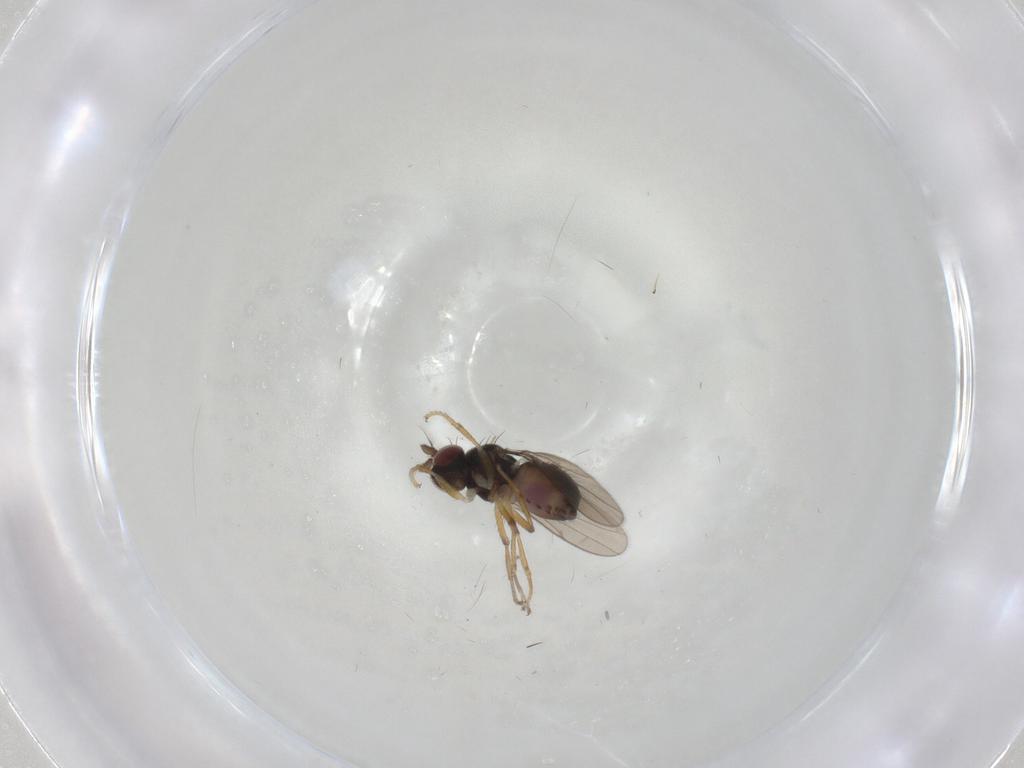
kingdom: Animalia
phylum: Arthropoda
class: Insecta
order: Diptera
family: Ephydridae
